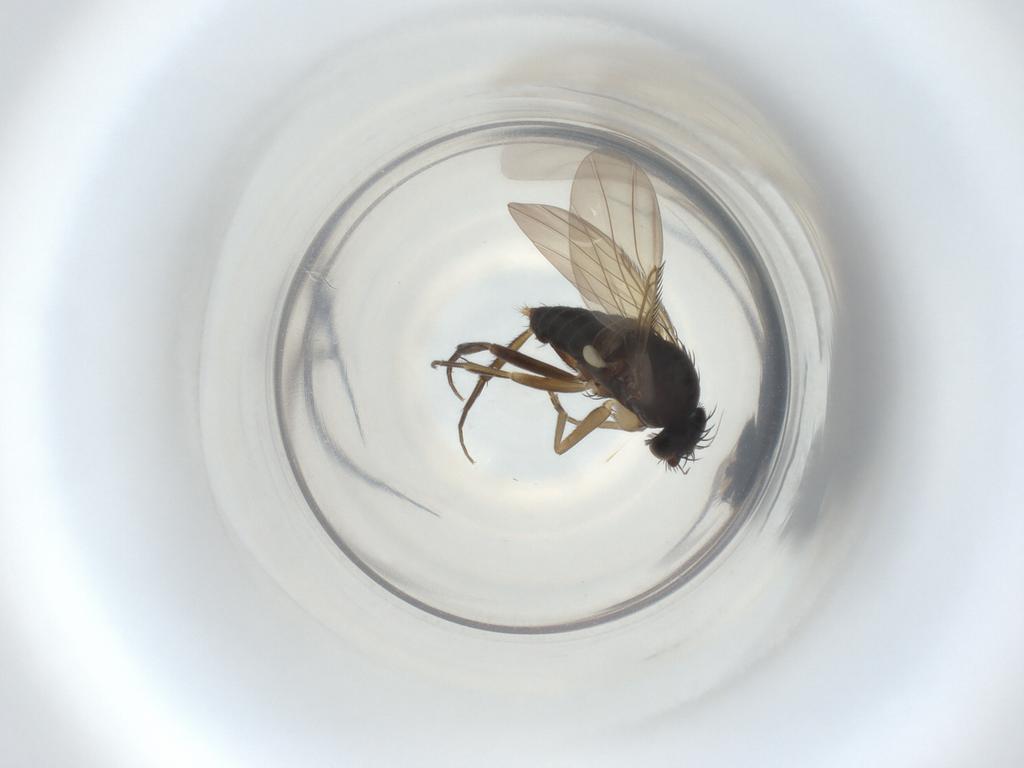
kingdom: Animalia
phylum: Arthropoda
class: Insecta
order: Diptera
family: Phoridae
